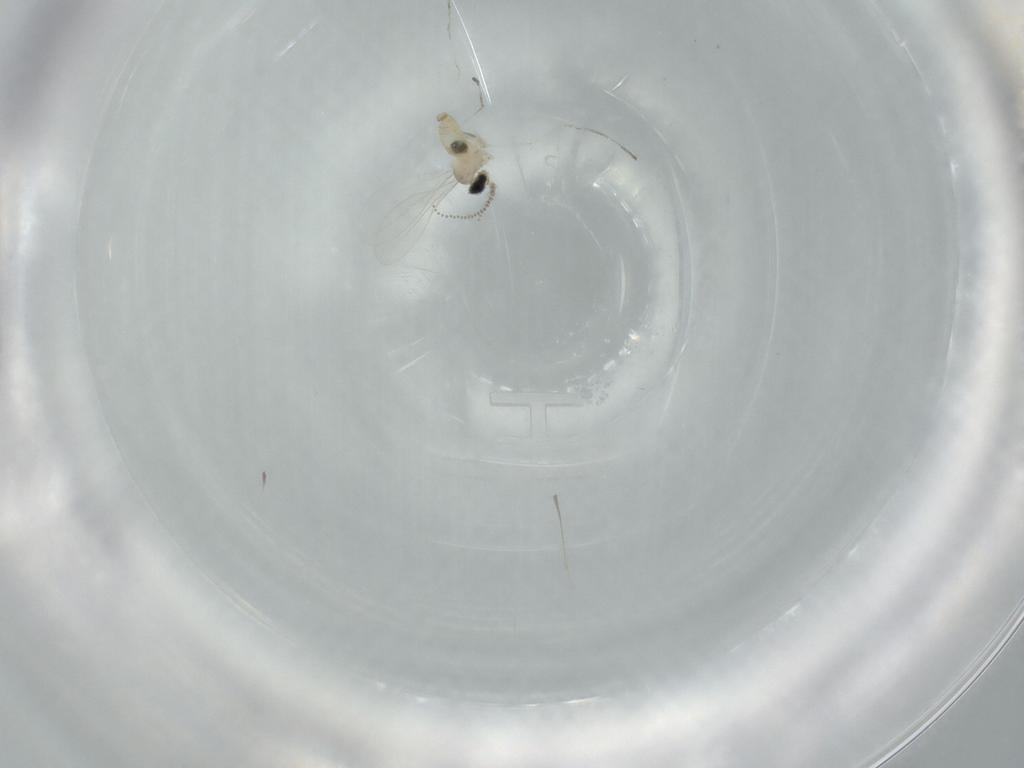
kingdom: Animalia
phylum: Arthropoda
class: Insecta
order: Diptera
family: Cecidomyiidae
